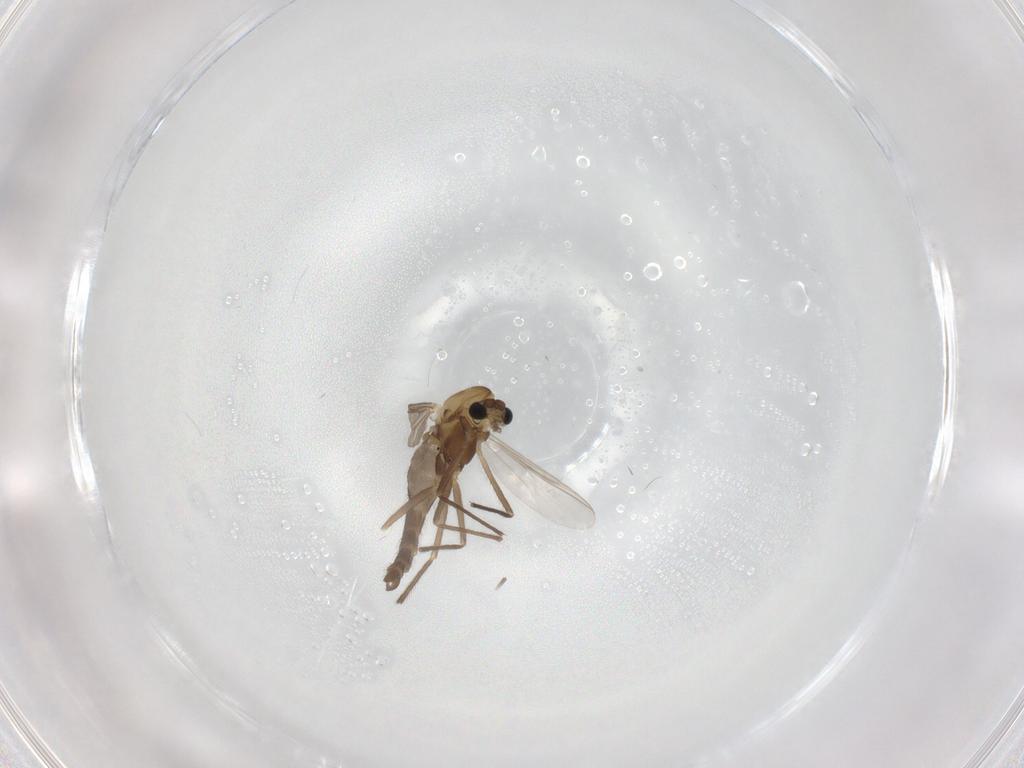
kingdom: Animalia
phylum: Arthropoda
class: Insecta
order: Diptera
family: Chironomidae
